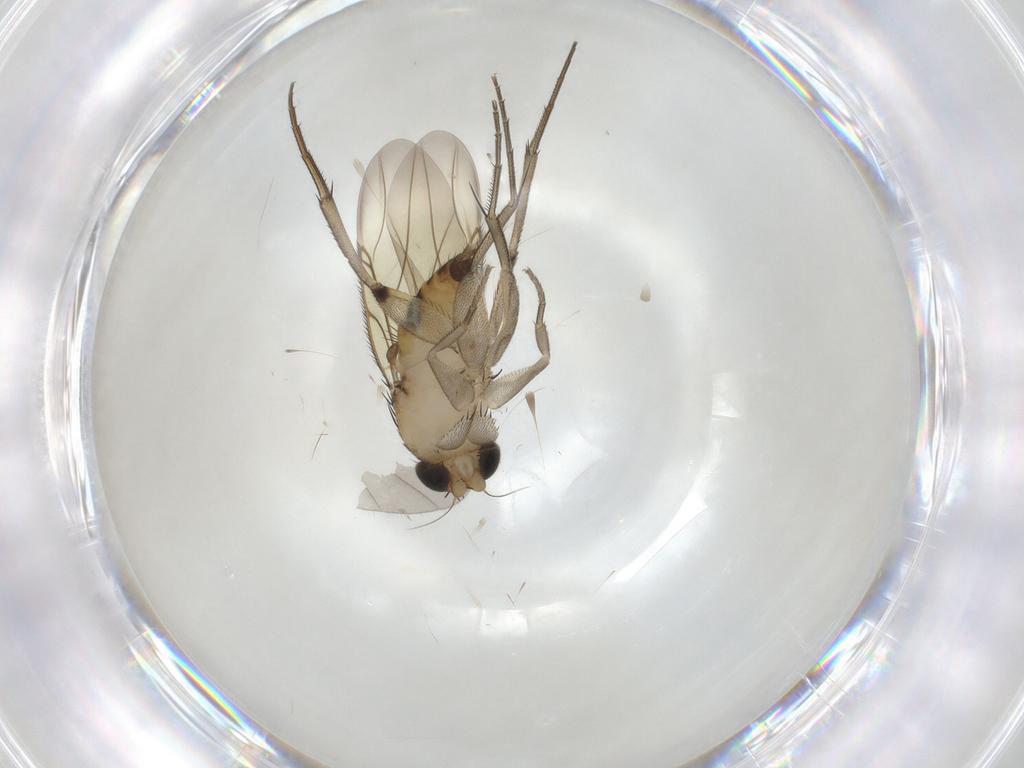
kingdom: Animalia
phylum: Arthropoda
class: Insecta
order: Diptera
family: Phoridae
